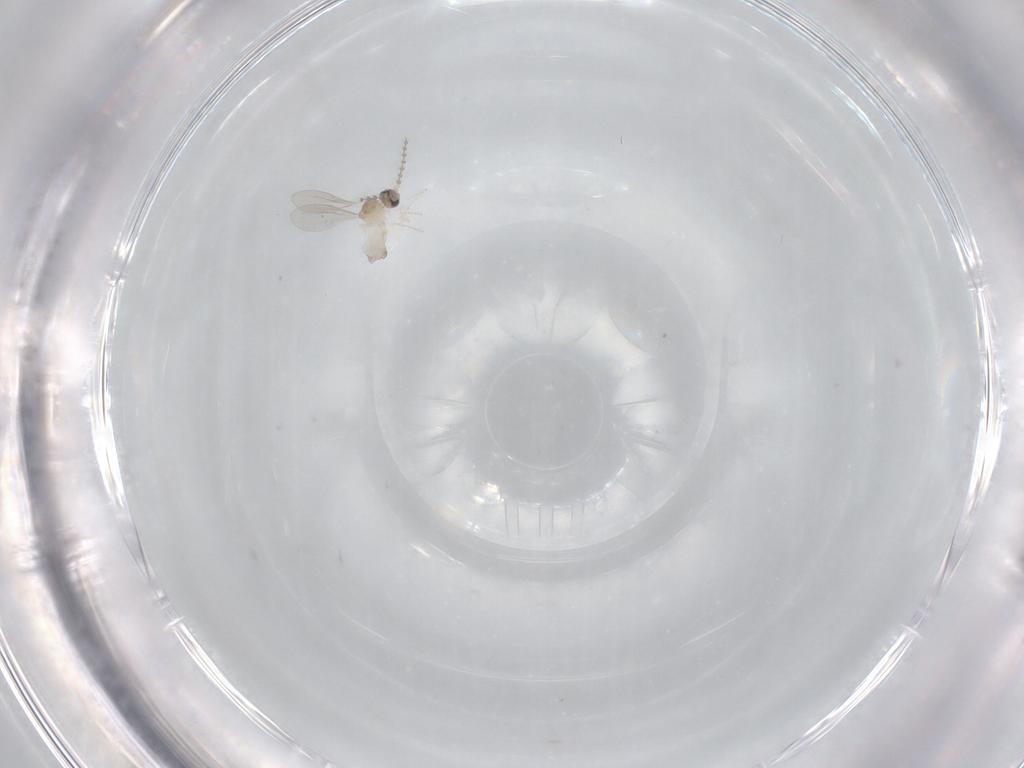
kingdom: Animalia
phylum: Arthropoda
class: Insecta
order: Diptera
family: Cecidomyiidae
